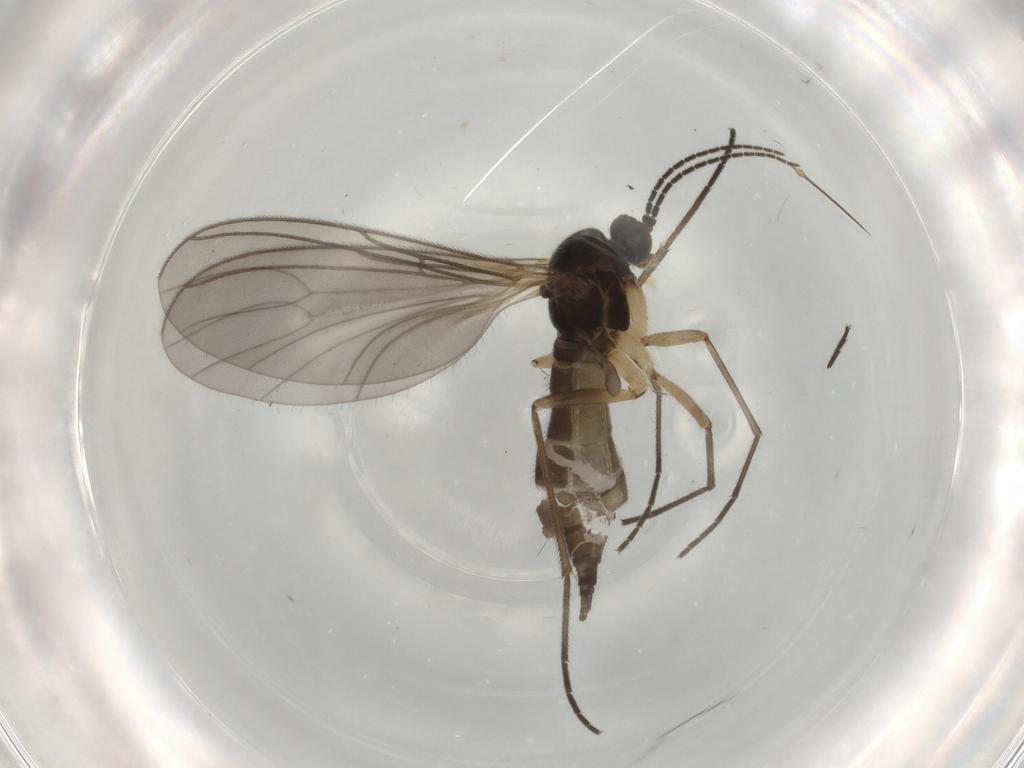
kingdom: Animalia
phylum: Arthropoda
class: Insecta
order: Diptera
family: Sciaridae
